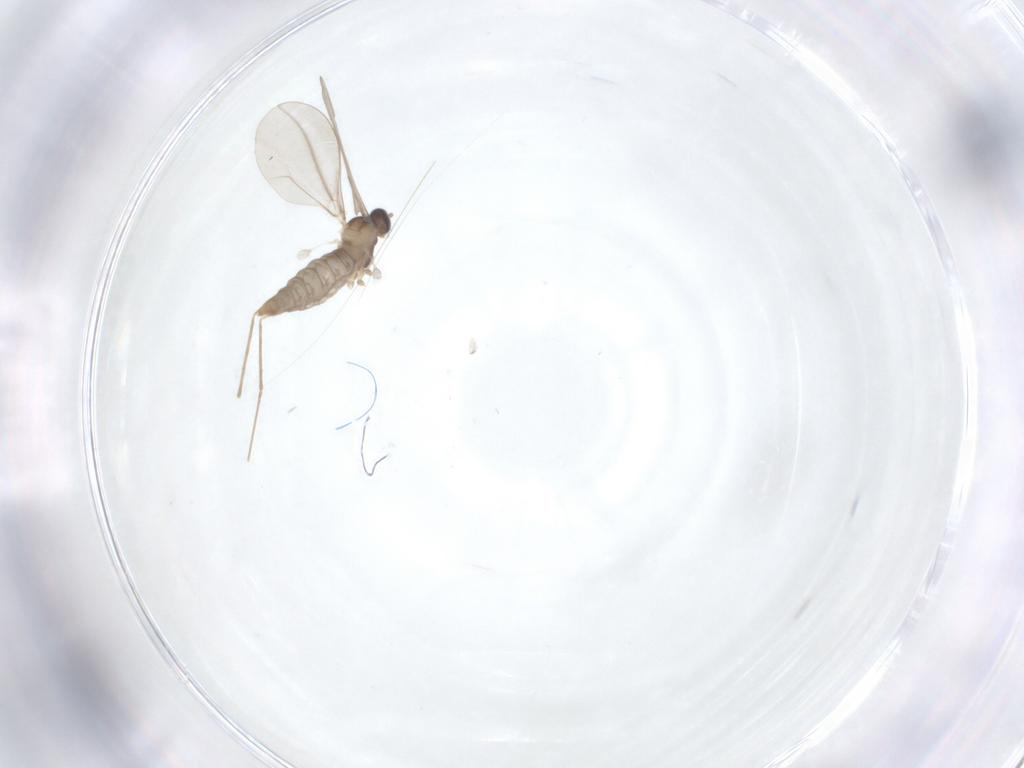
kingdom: Animalia
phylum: Arthropoda
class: Insecta
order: Diptera
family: Cecidomyiidae
